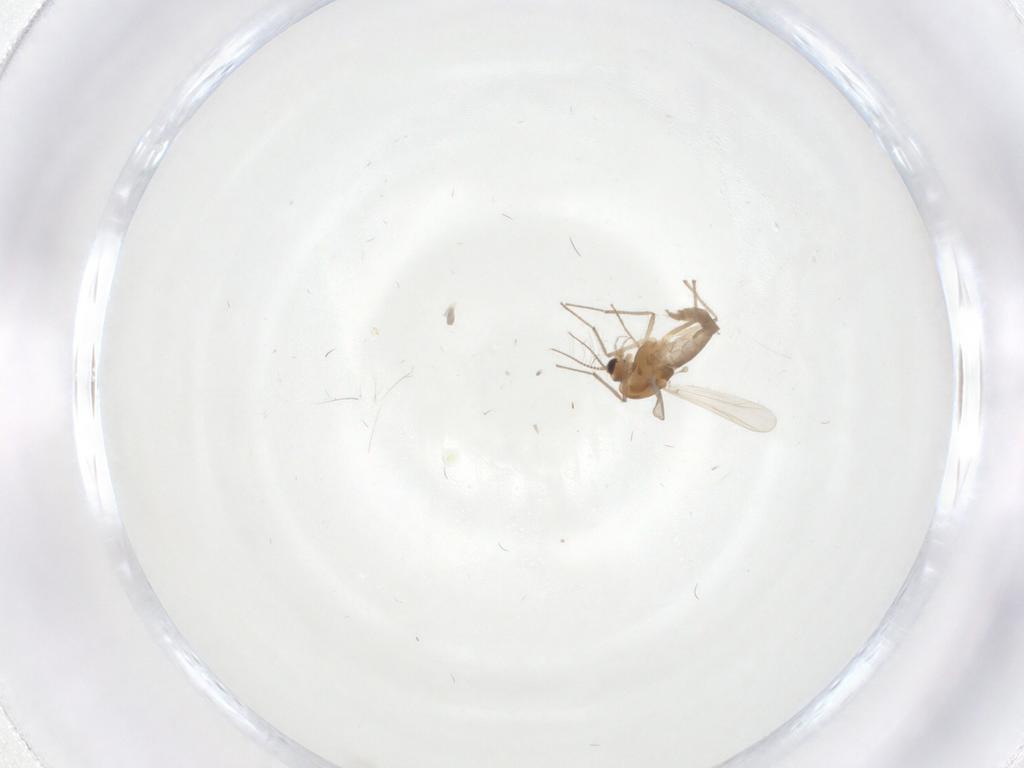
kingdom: Animalia
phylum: Arthropoda
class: Insecta
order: Diptera
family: Chironomidae
